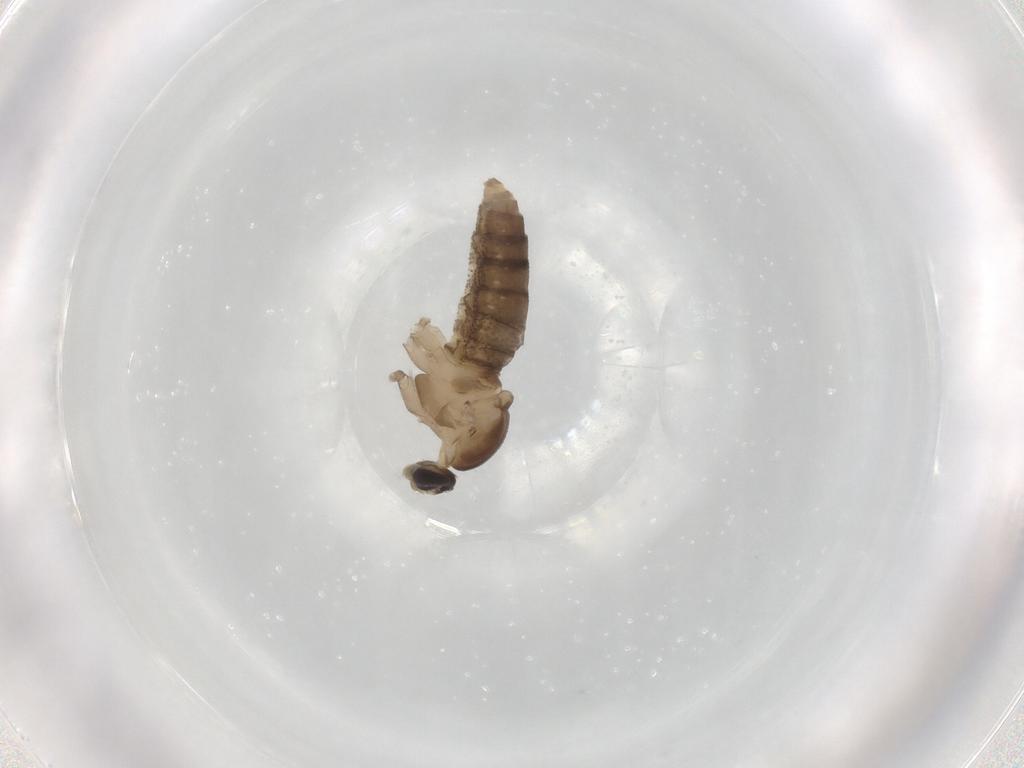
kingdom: Animalia
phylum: Arthropoda
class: Insecta
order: Diptera
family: Cecidomyiidae
